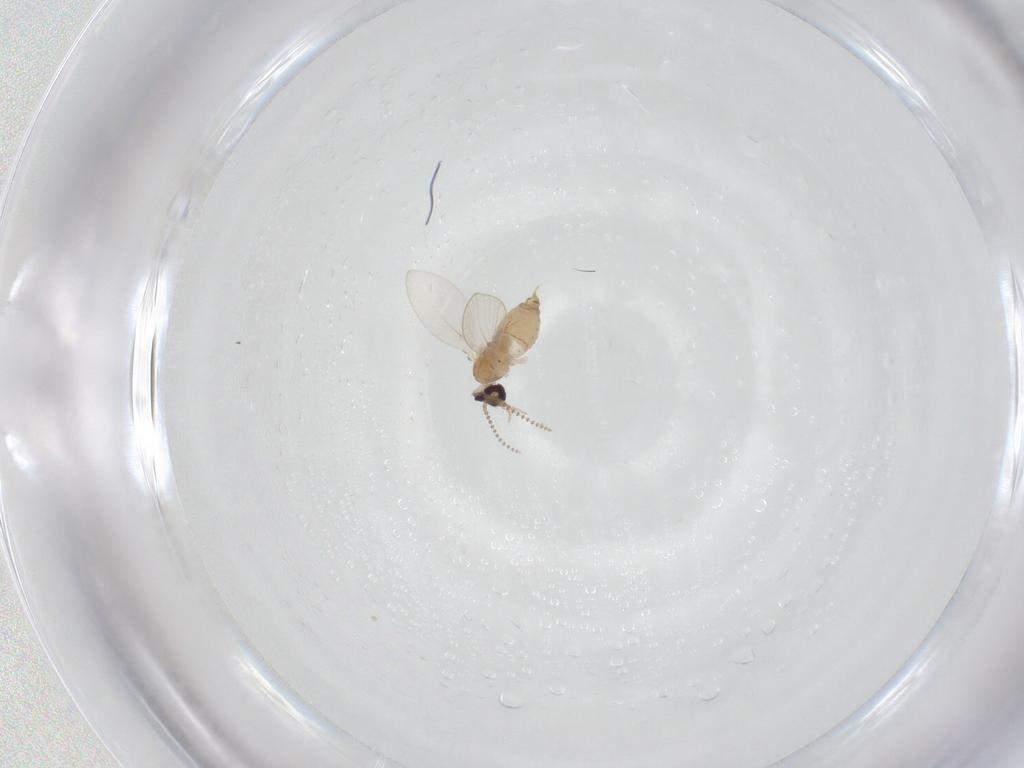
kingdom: Animalia
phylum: Arthropoda
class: Insecta
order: Diptera
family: Psychodidae
